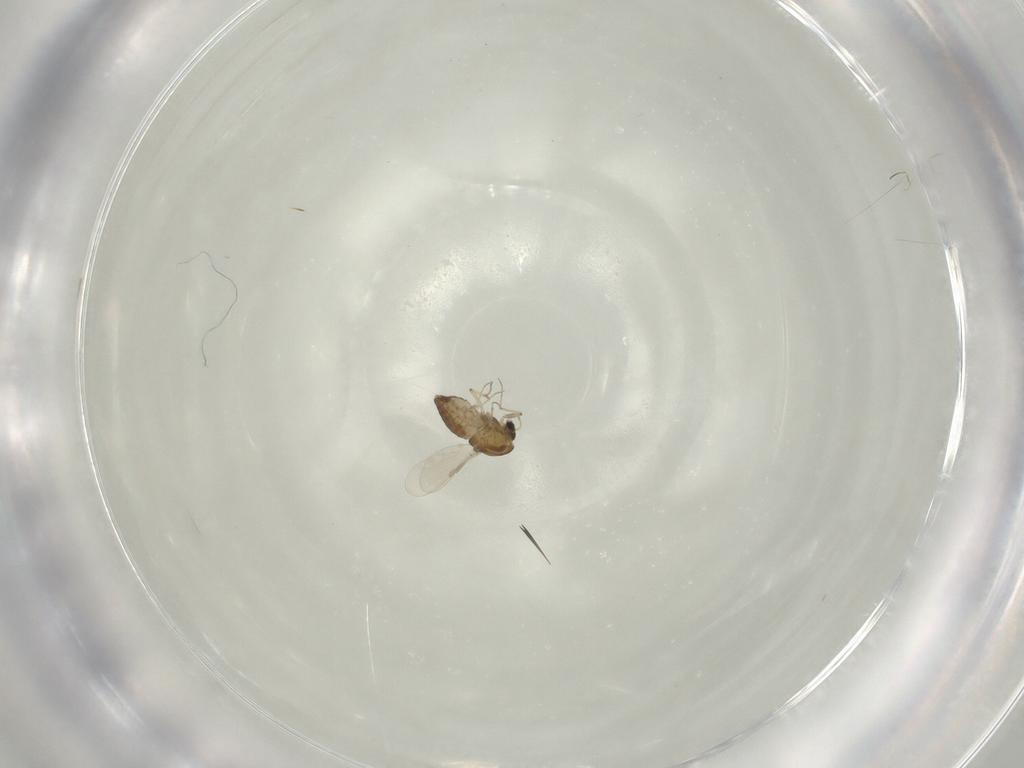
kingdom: Animalia
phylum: Arthropoda
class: Insecta
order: Diptera
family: Chironomidae
